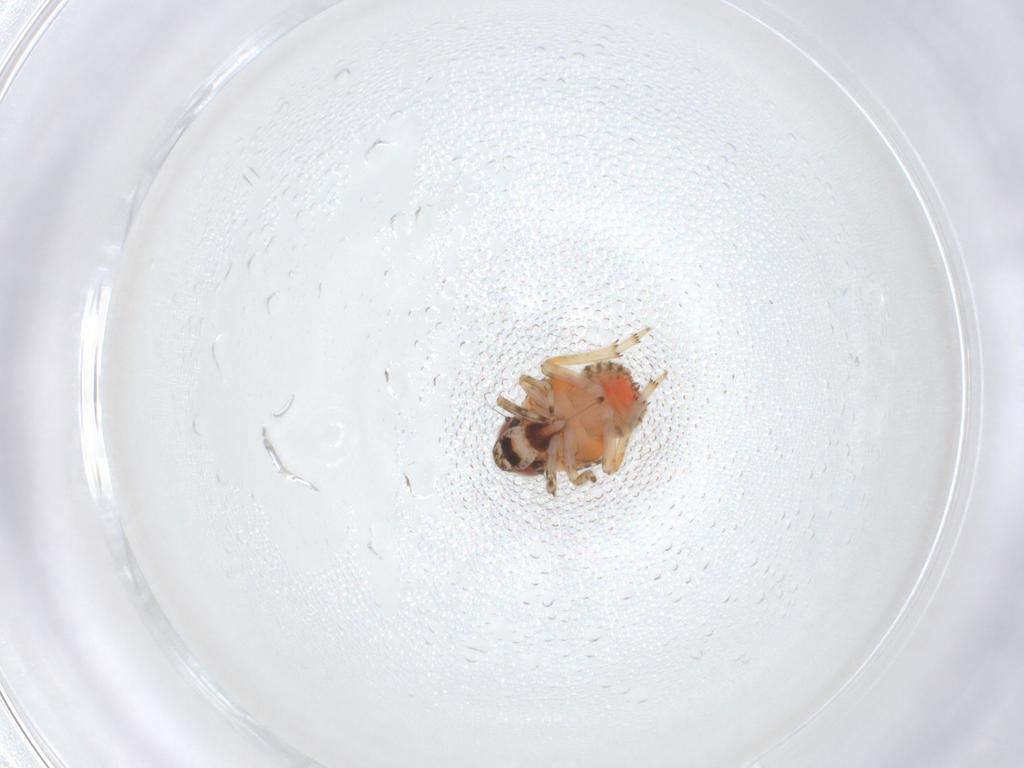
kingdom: Animalia
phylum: Arthropoda
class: Insecta
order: Hemiptera
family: Issidae
